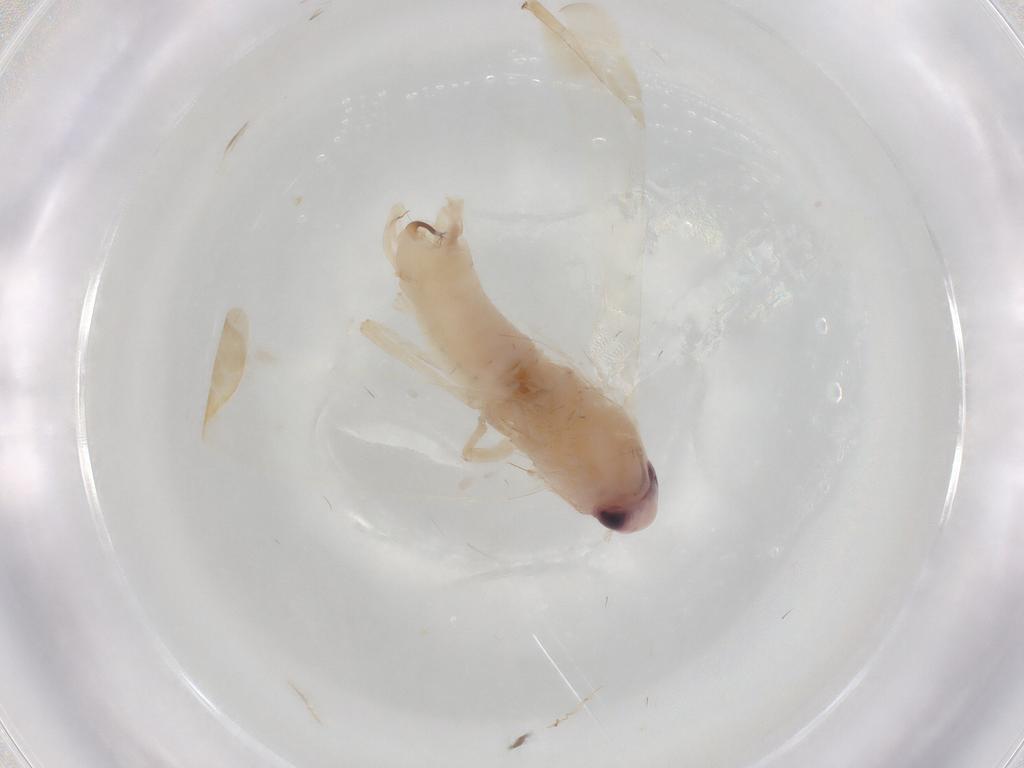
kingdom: Animalia
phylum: Arthropoda
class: Insecta
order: Hemiptera
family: Cicadellidae
